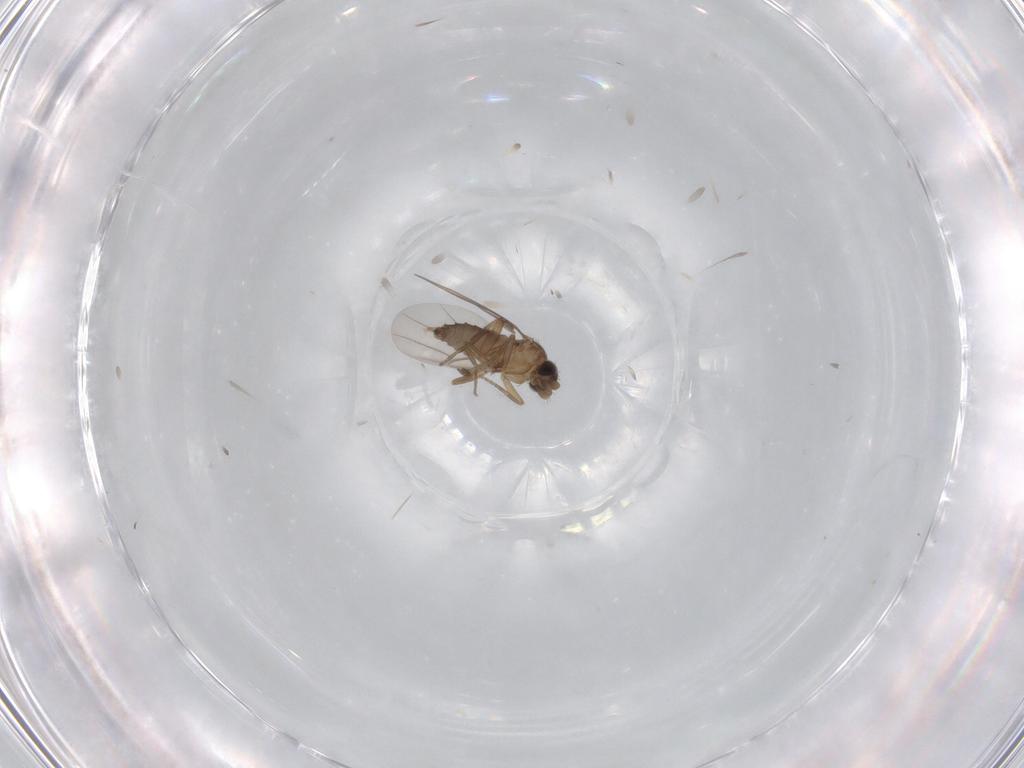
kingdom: Animalia
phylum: Arthropoda
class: Insecta
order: Diptera
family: Phoridae
